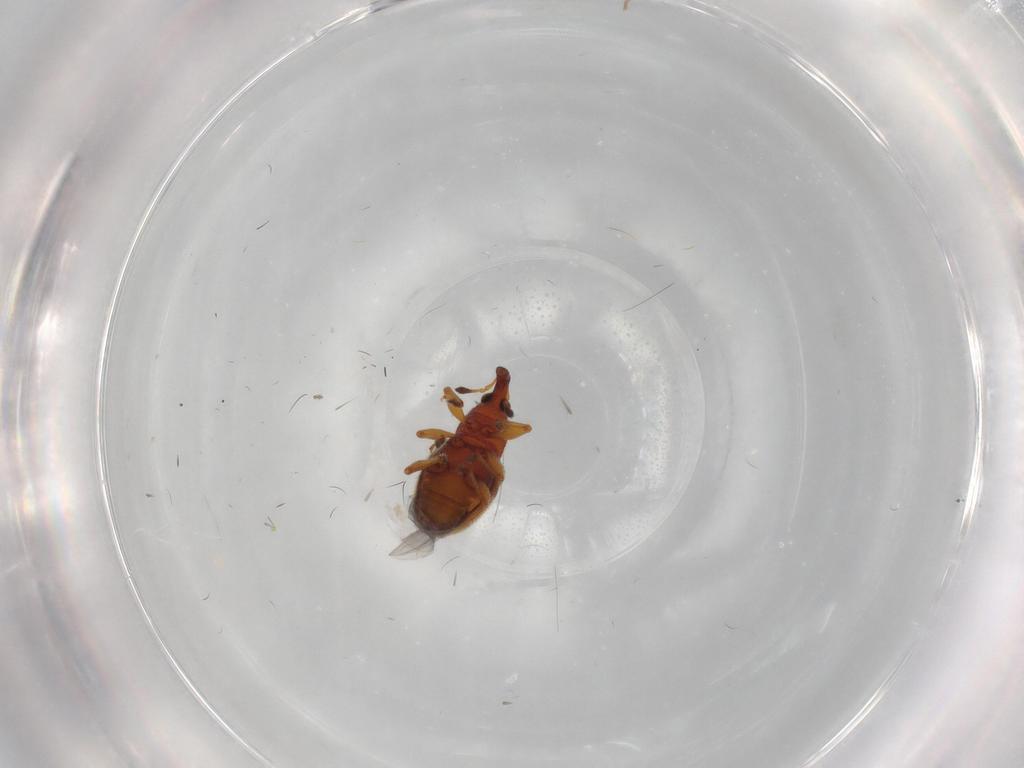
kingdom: Animalia
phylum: Arthropoda
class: Insecta
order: Coleoptera
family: Curculionidae
